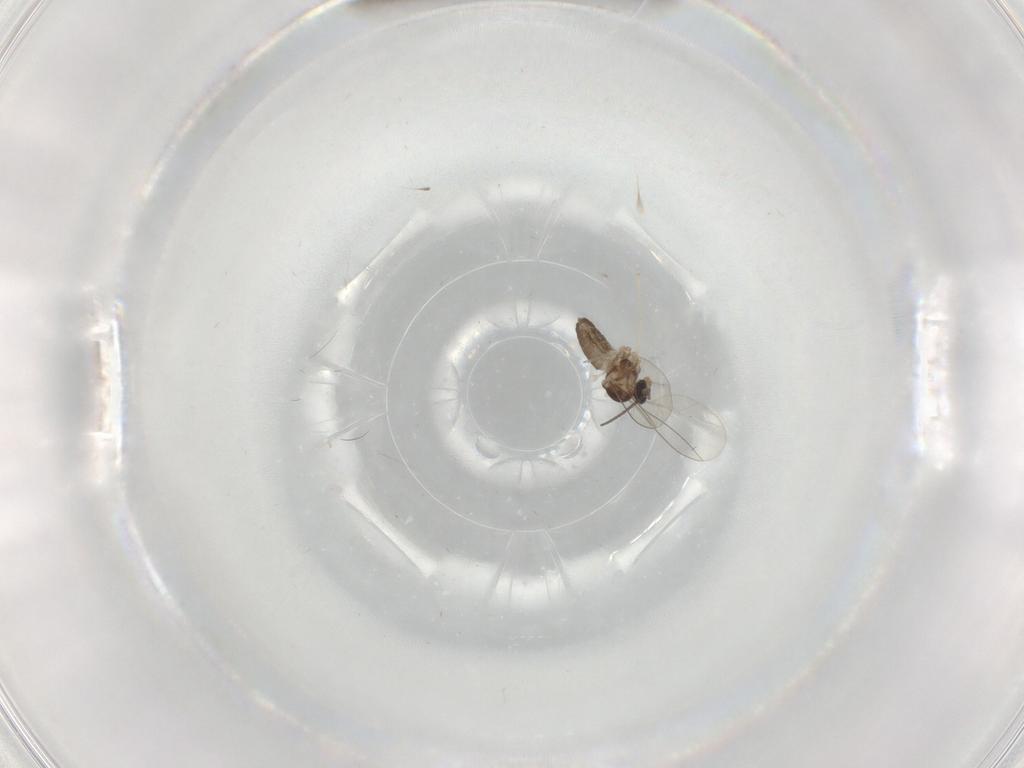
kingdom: Animalia
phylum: Arthropoda
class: Insecta
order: Diptera
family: Cecidomyiidae
